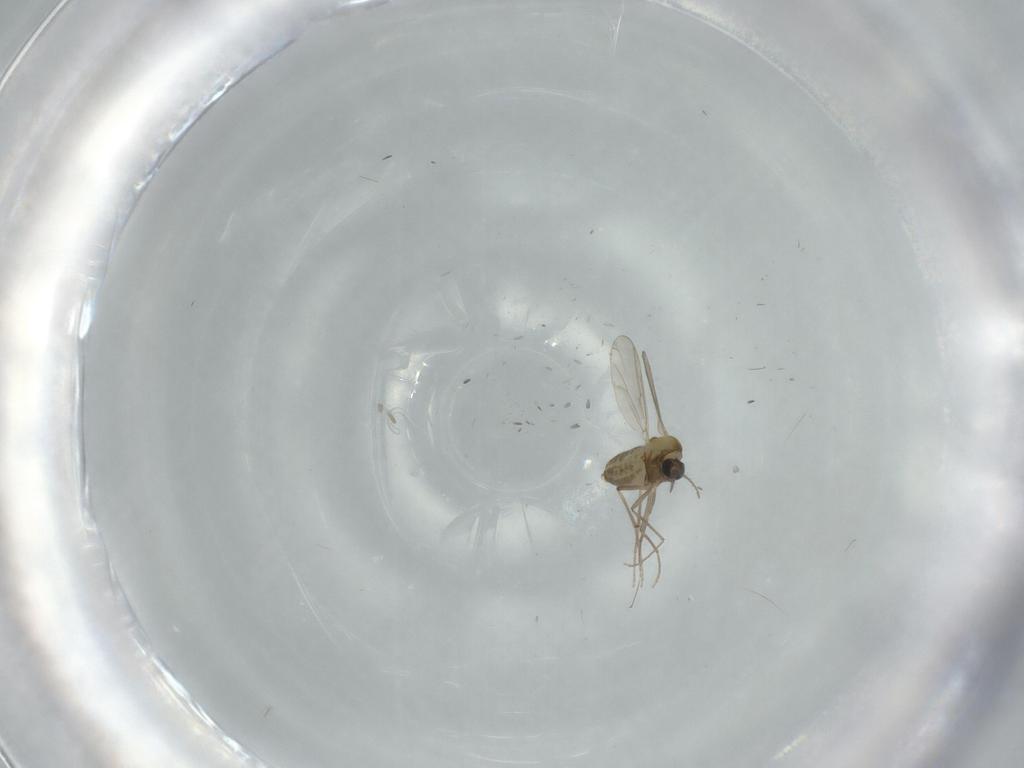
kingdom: Animalia
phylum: Arthropoda
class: Insecta
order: Diptera
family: Chironomidae
